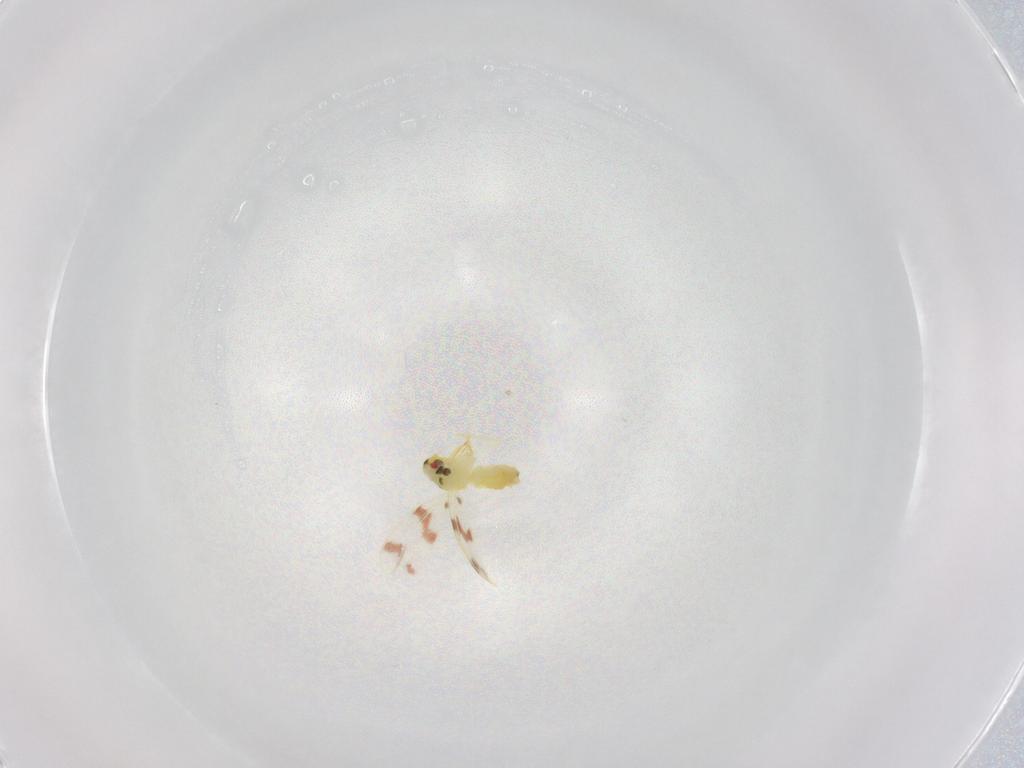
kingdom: Animalia
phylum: Arthropoda
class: Insecta
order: Hemiptera
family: Aleyrodidae
